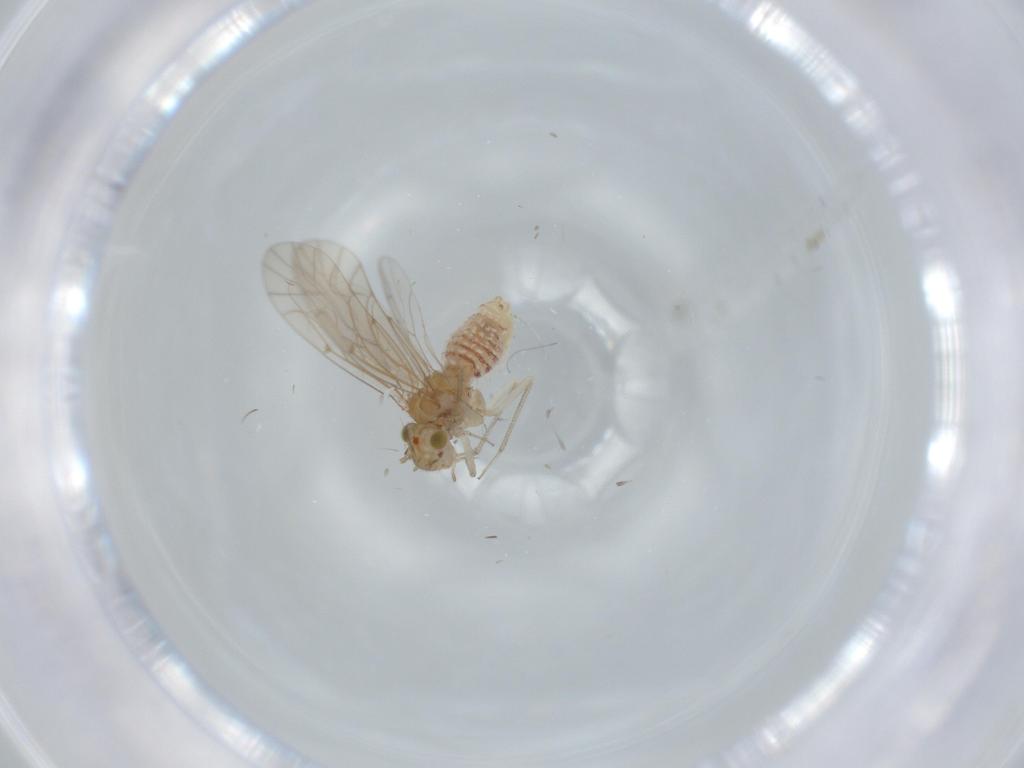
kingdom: Animalia
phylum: Arthropoda
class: Insecta
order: Psocodea
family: Lachesillidae
